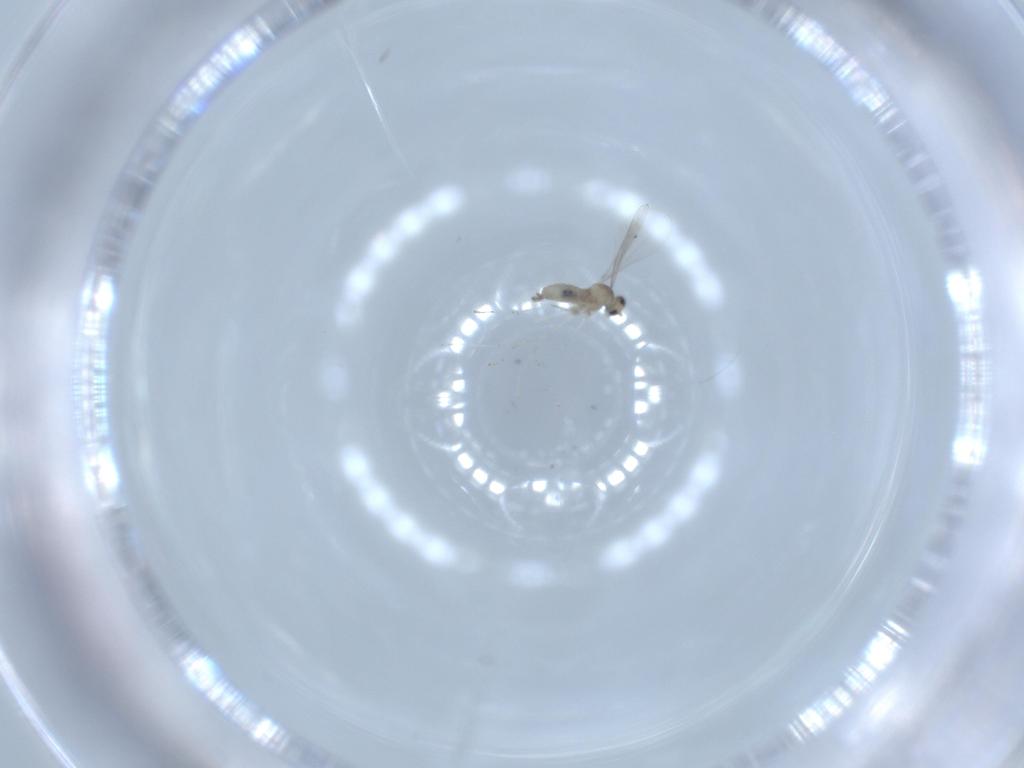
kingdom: Animalia
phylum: Arthropoda
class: Insecta
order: Diptera
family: Cecidomyiidae
